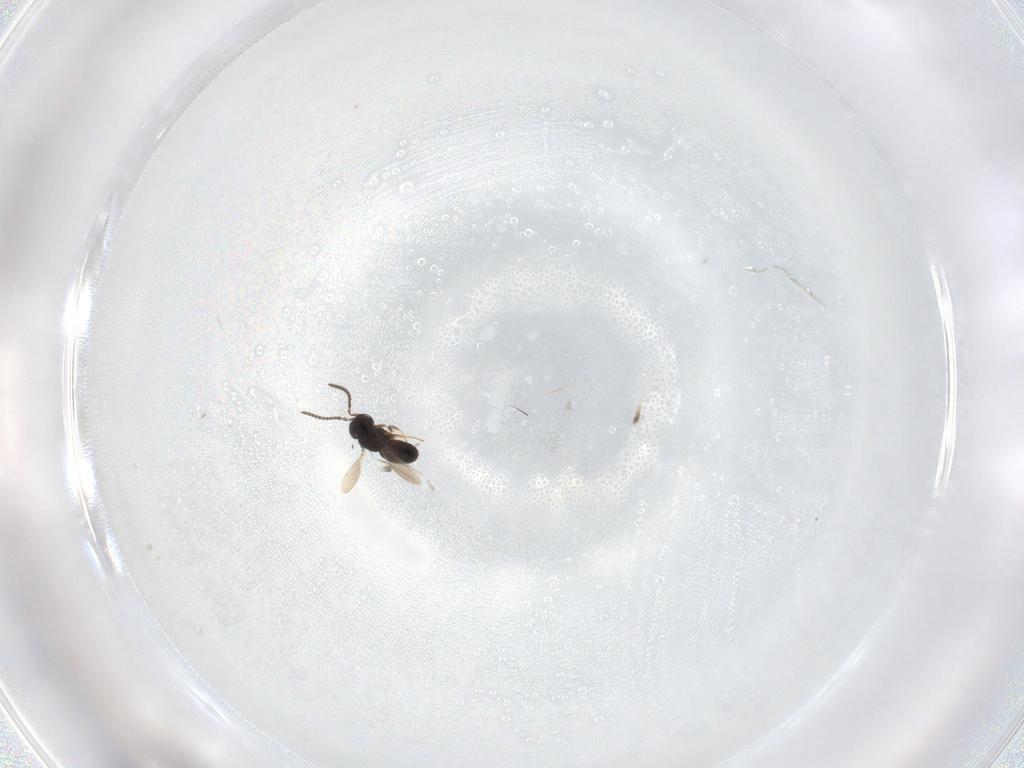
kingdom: Animalia
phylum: Arthropoda
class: Insecta
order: Hymenoptera
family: Scelionidae
